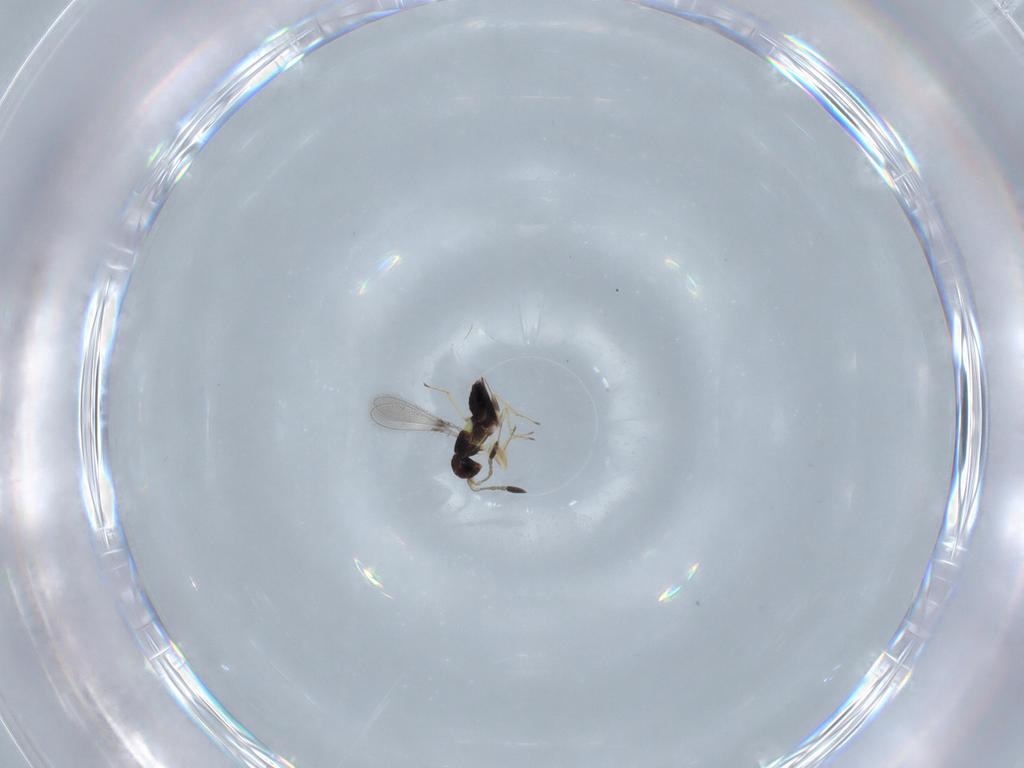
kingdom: Animalia
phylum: Arthropoda
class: Insecta
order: Hymenoptera
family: Mymaridae
